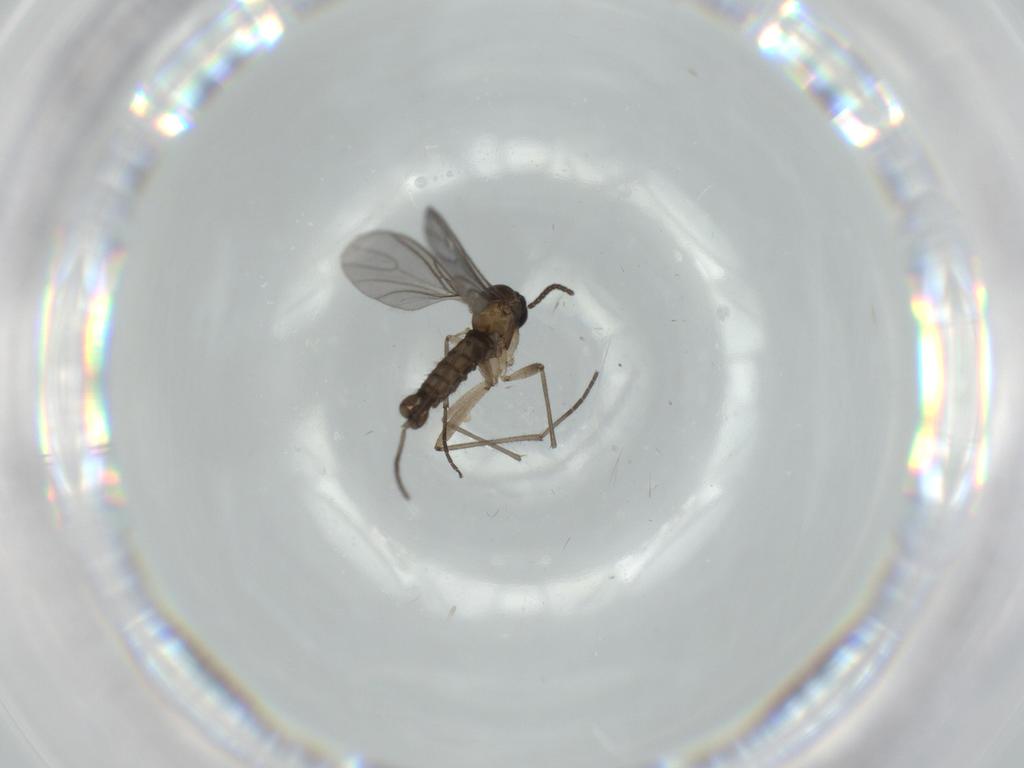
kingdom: Animalia
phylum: Arthropoda
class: Insecta
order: Diptera
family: Sciaridae
